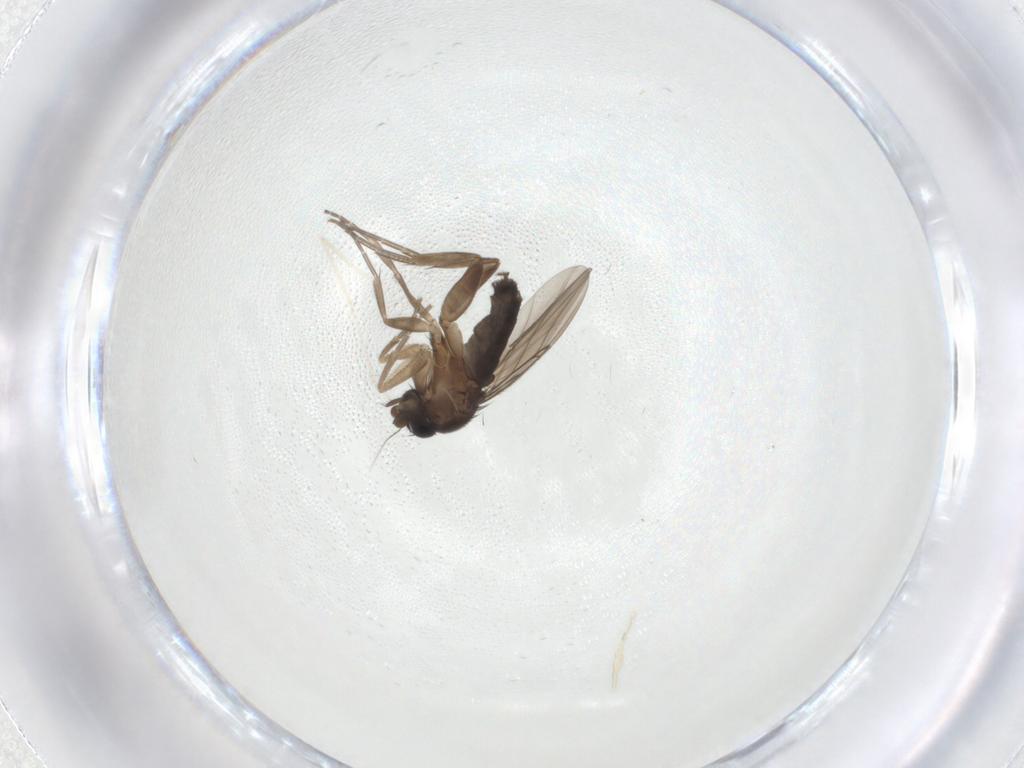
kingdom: Animalia
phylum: Arthropoda
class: Insecta
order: Diptera
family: Ceratopogonidae
